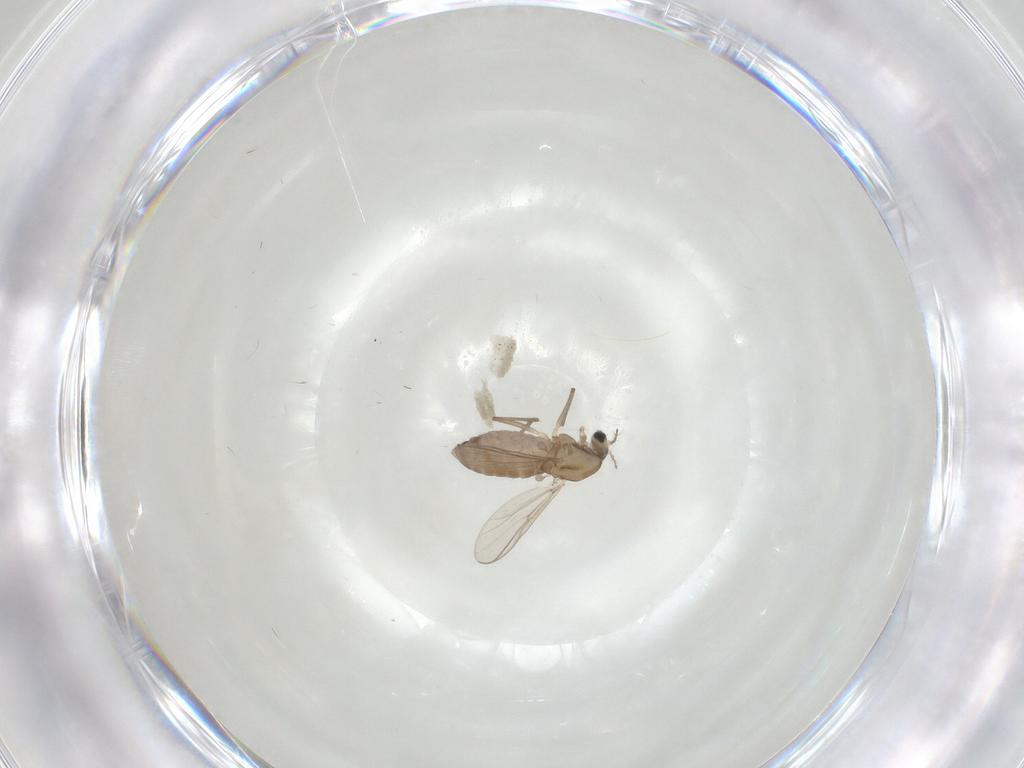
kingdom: Animalia
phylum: Arthropoda
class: Insecta
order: Diptera
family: Chironomidae
